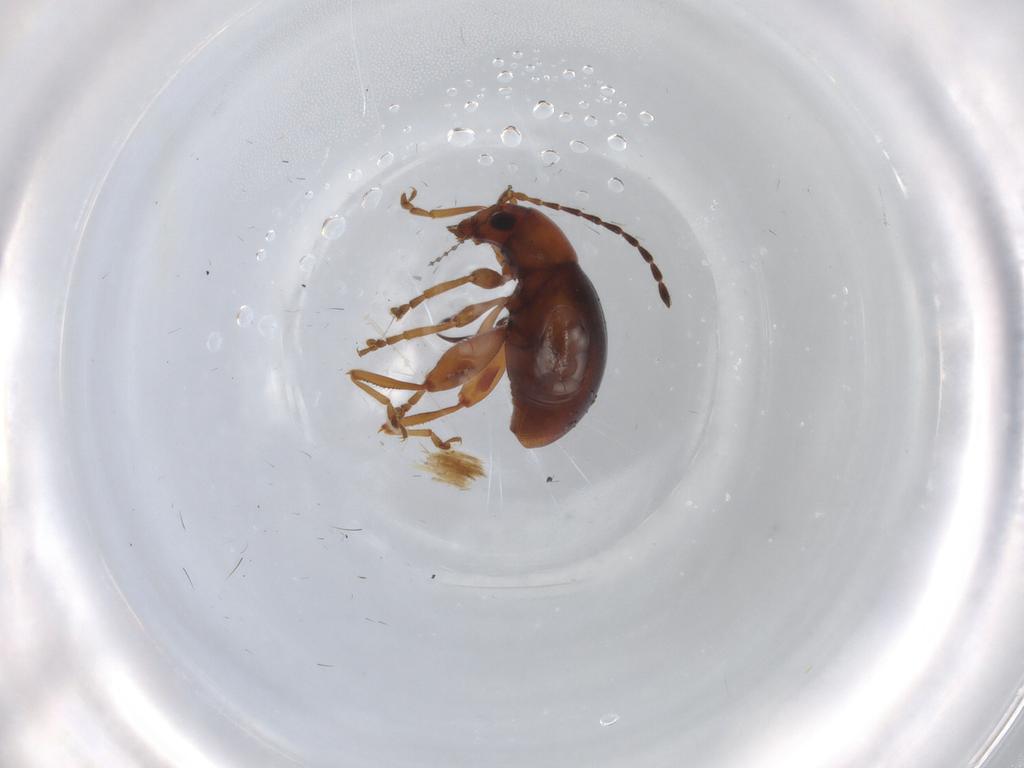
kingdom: Animalia
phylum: Arthropoda
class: Insecta
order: Coleoptera
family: Chrysomelidae
